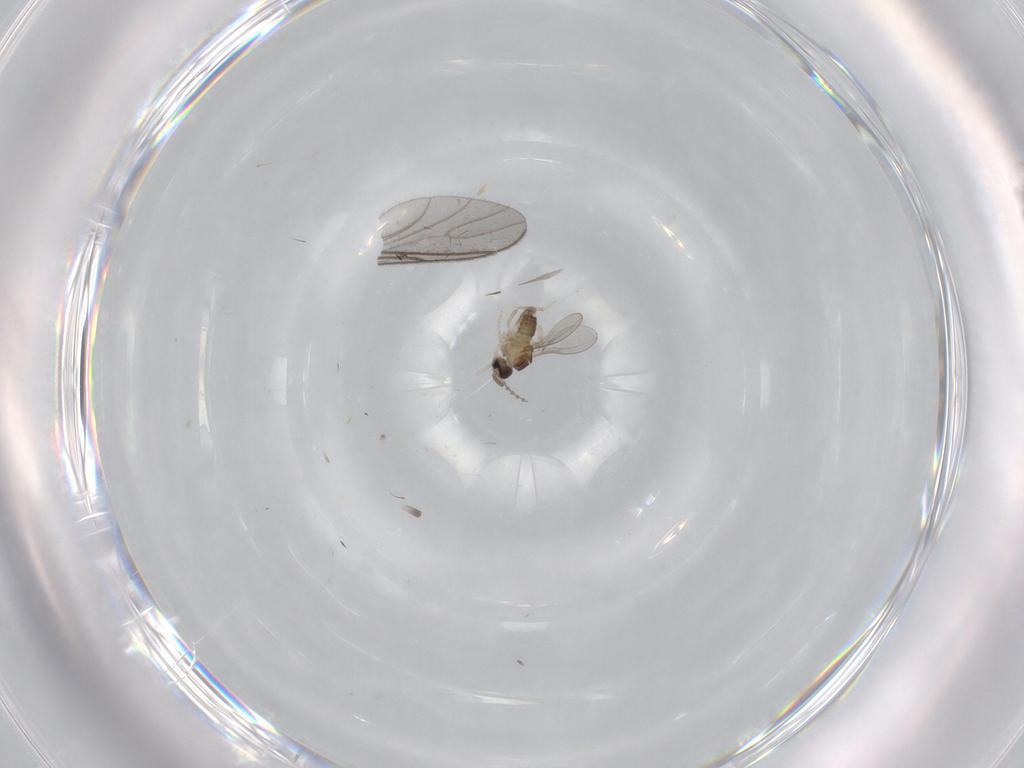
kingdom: Animalia
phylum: Arthropoda
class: Insecta
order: Diptera
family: Cecidomyiidae
